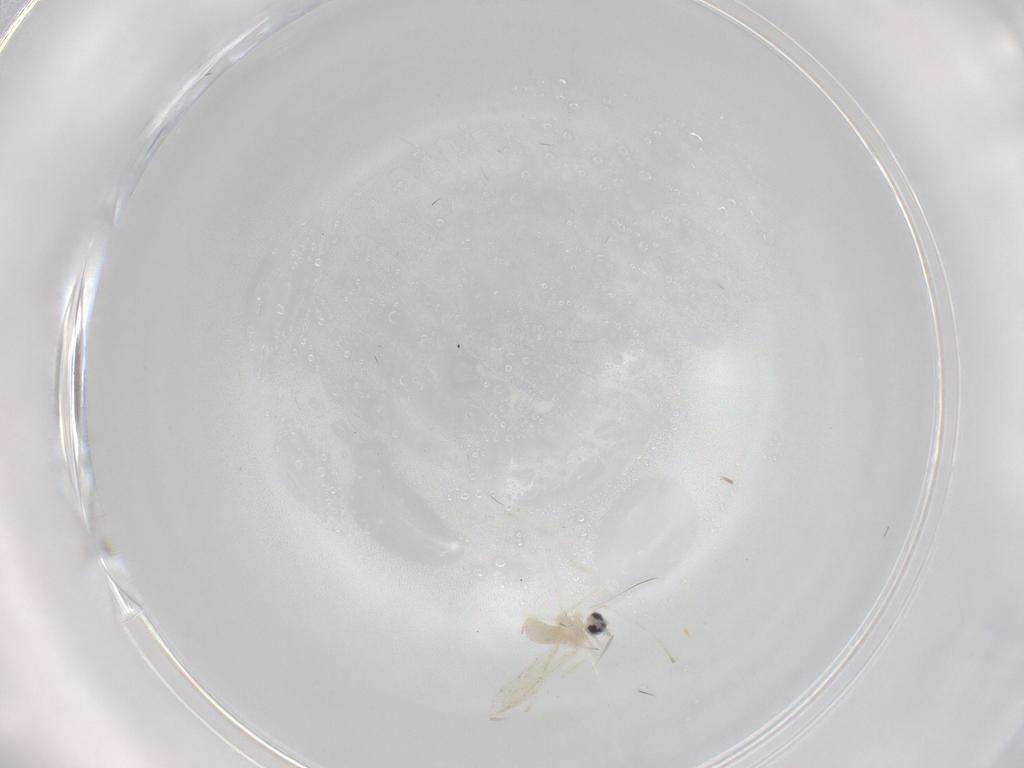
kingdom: Animalia
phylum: Arthropoda
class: Insecta
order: Diptera
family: Cecidomyiidae
